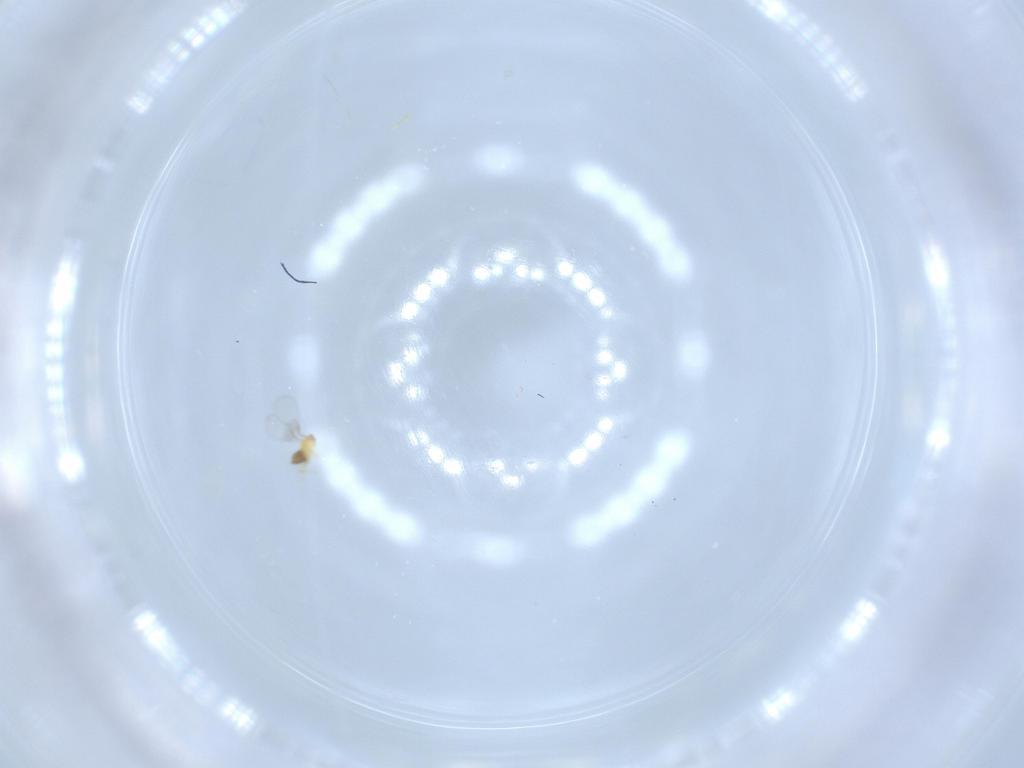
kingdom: Animalia
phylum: Arthropoda
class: Insecta
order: Hymenoptera
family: Trichogrammatidae
